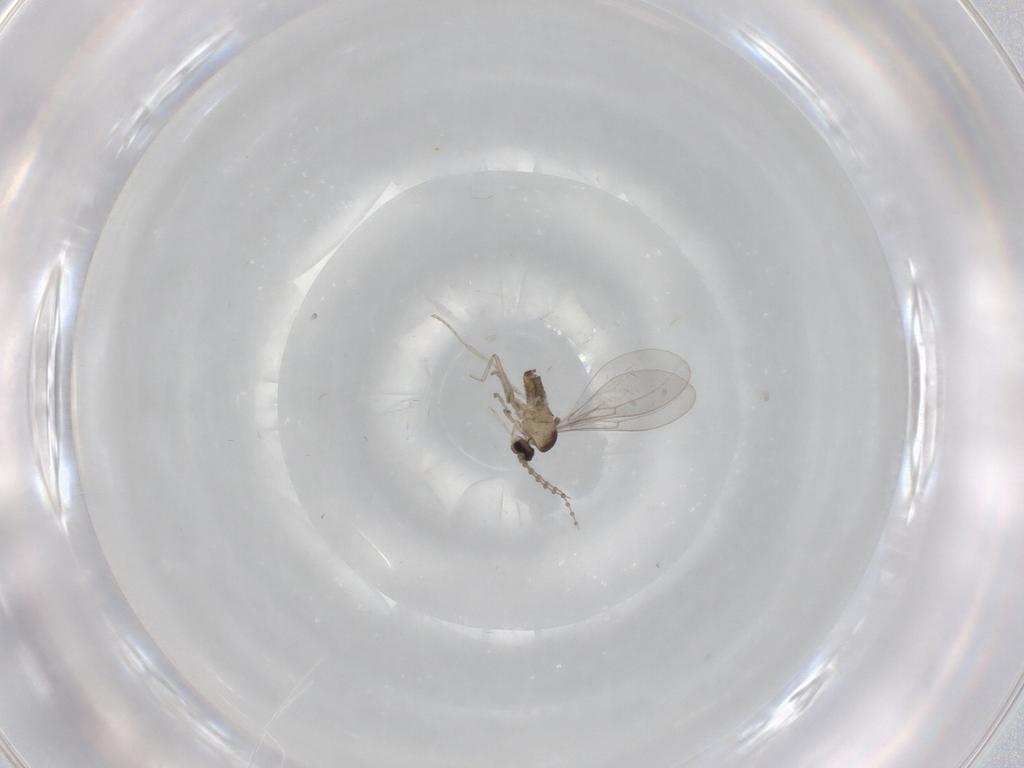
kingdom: Animalia
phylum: Arthropoda
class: Insecta
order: Diptera
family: Cecidomyiidae
